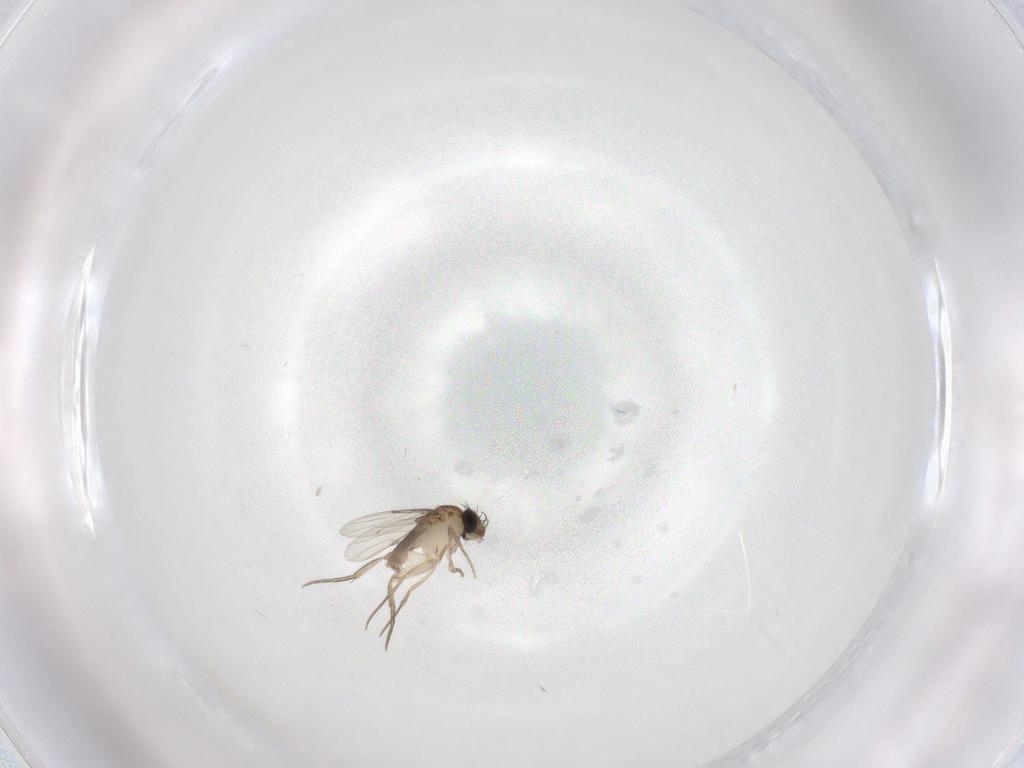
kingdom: Animalia
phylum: Arthropoda
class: Insecta
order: Diptera
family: Phoridae
